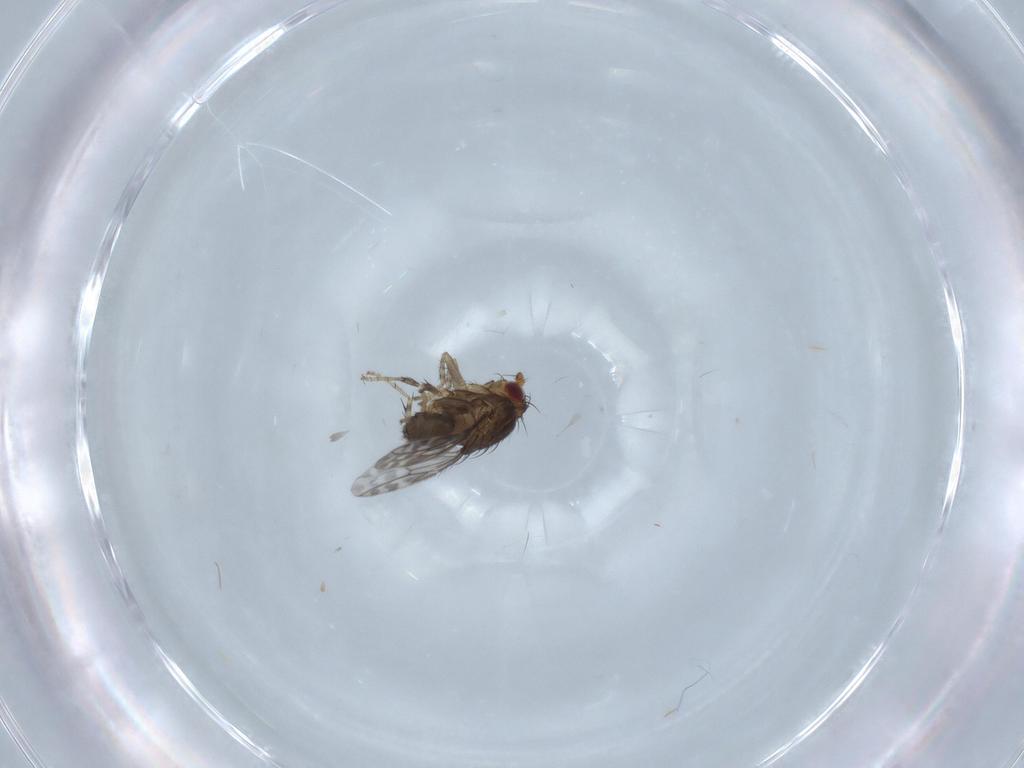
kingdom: Animalia
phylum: Arthropoda
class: Insecta
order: Diptera
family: Sphaeroceridae
